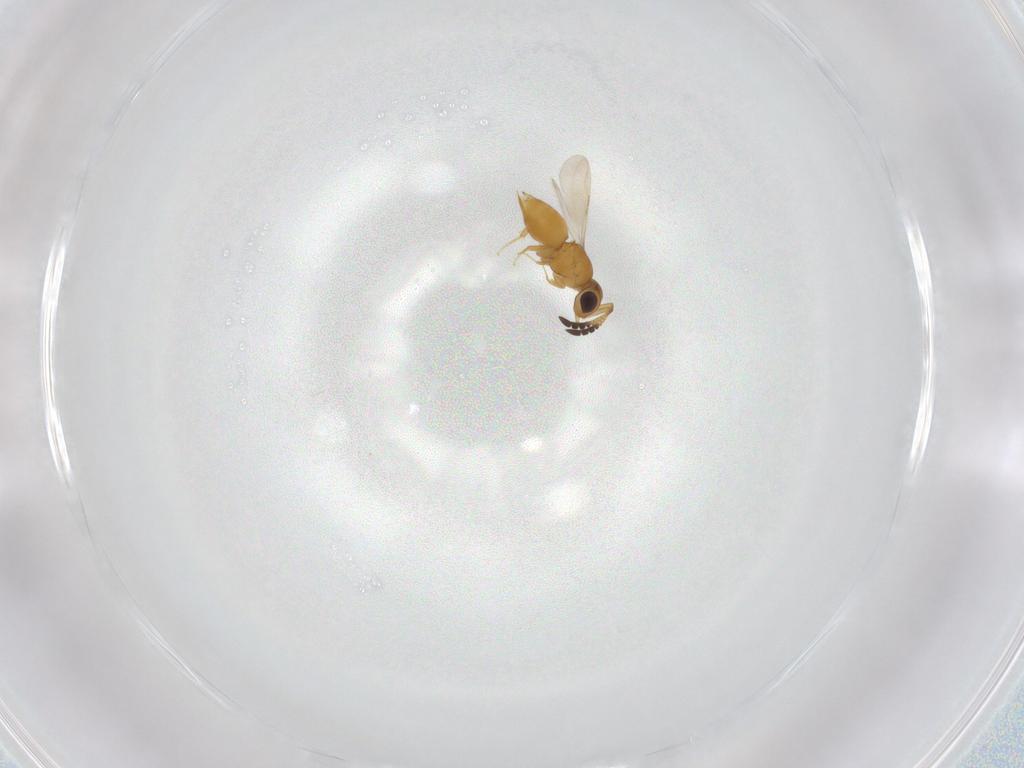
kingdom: Animalia
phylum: Arthropoda
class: Insecta
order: Hymenoptera
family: Ceraphronidae
